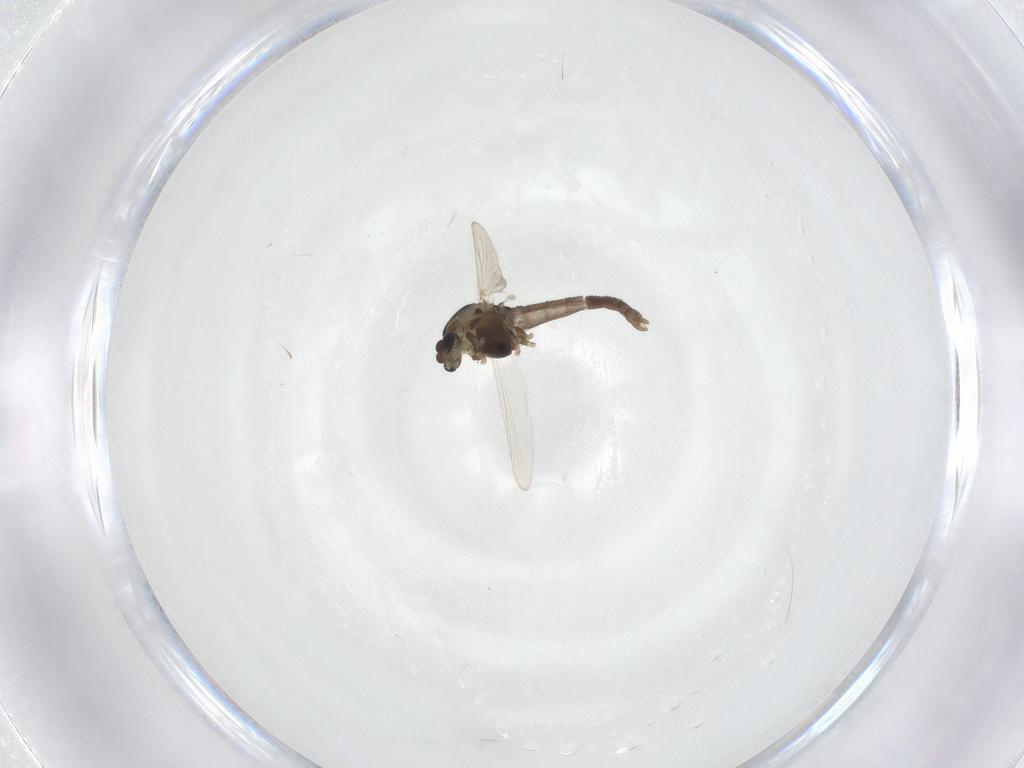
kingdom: Animalia
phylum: Arthropoda
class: Insecta
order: Diptera
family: Chironomidae
